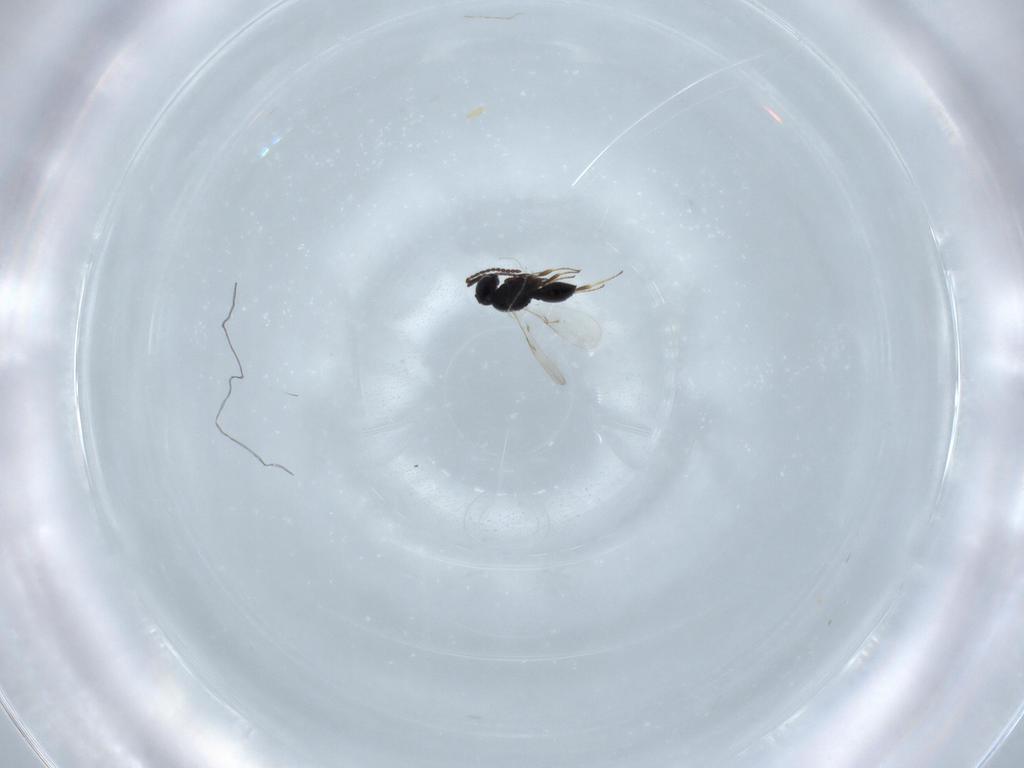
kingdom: Animalia
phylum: Arthropoda
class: Insecta
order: Hymenoptera
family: Scelionidae
